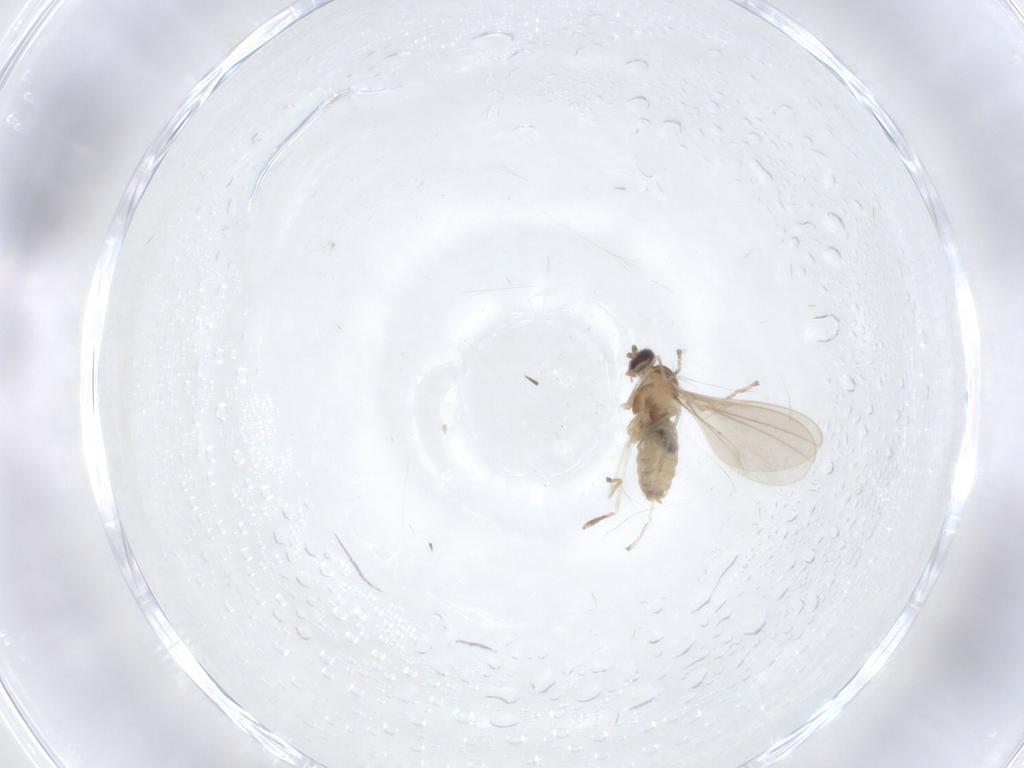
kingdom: Animalia
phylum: Arthropoda
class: Insecta
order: Diptera
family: Cecidomyiidae
